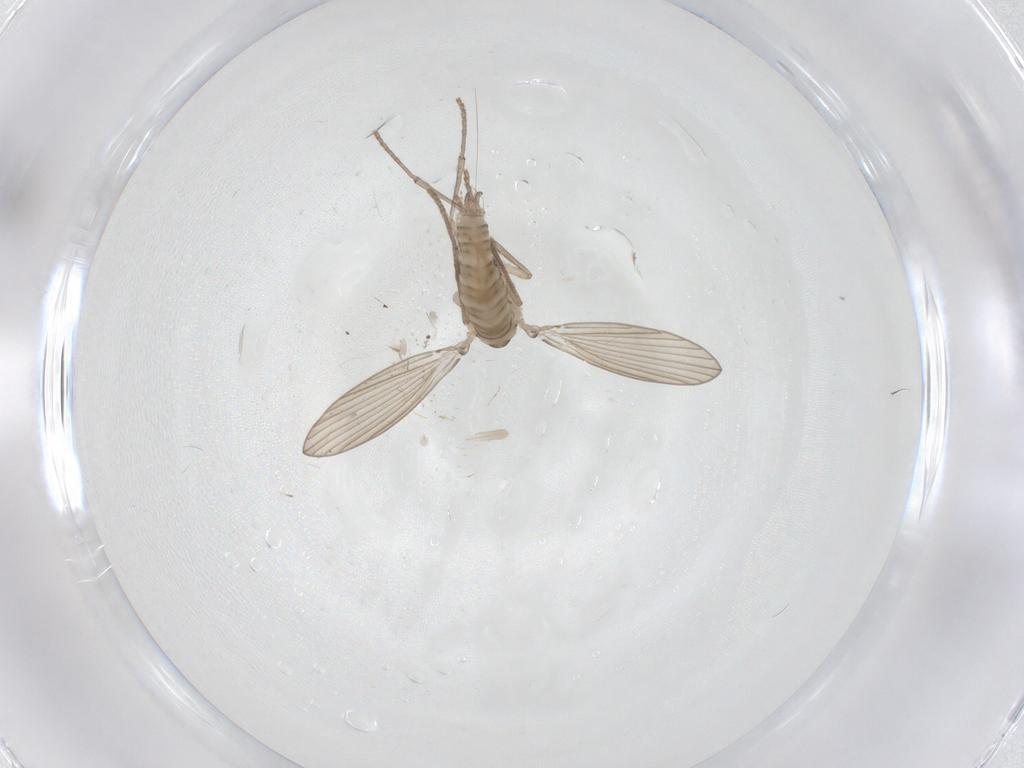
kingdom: Animalia
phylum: Arthropoda
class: Insecta
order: Diptera
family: Psychodidae
